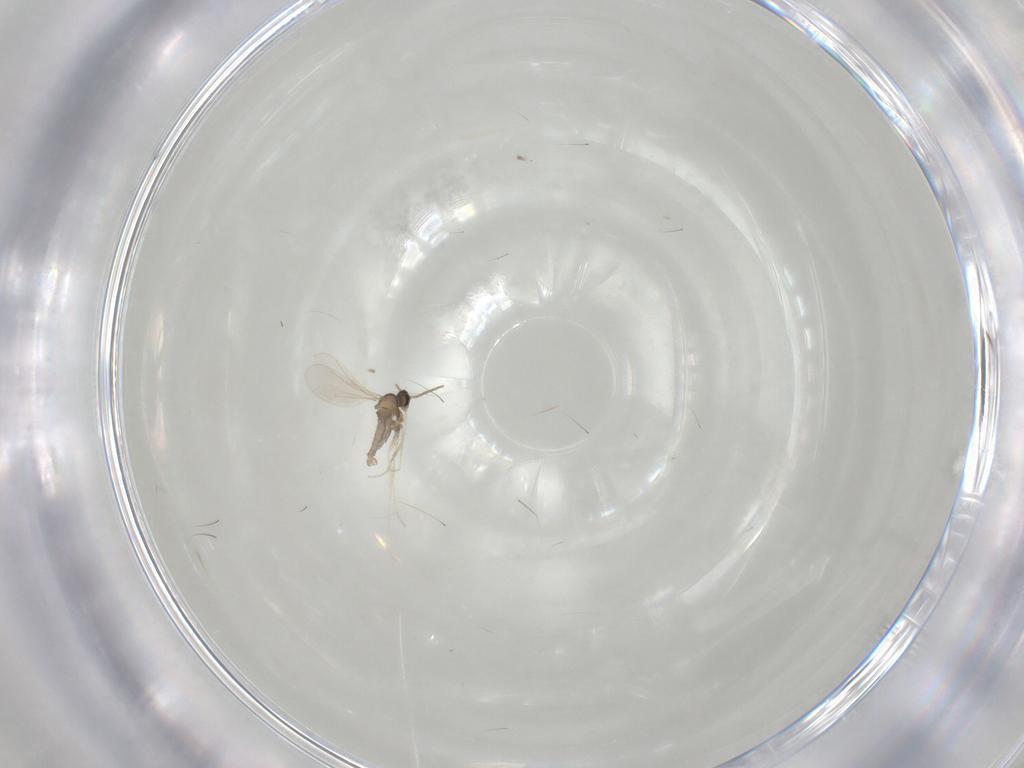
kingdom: Animalia
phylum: Arthropoda
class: Insecta
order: Diptera
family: Cecidomyiidae
